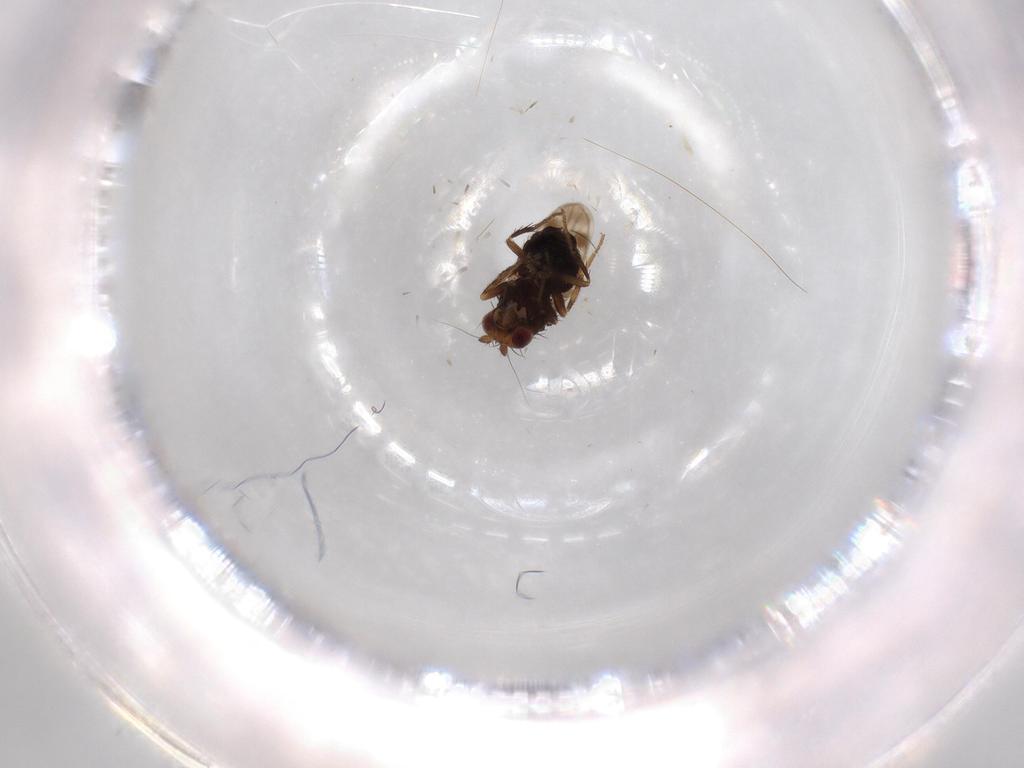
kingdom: Animalia
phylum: Arthropoda
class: Insecta
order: Diptera
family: Sphaeroceridae
